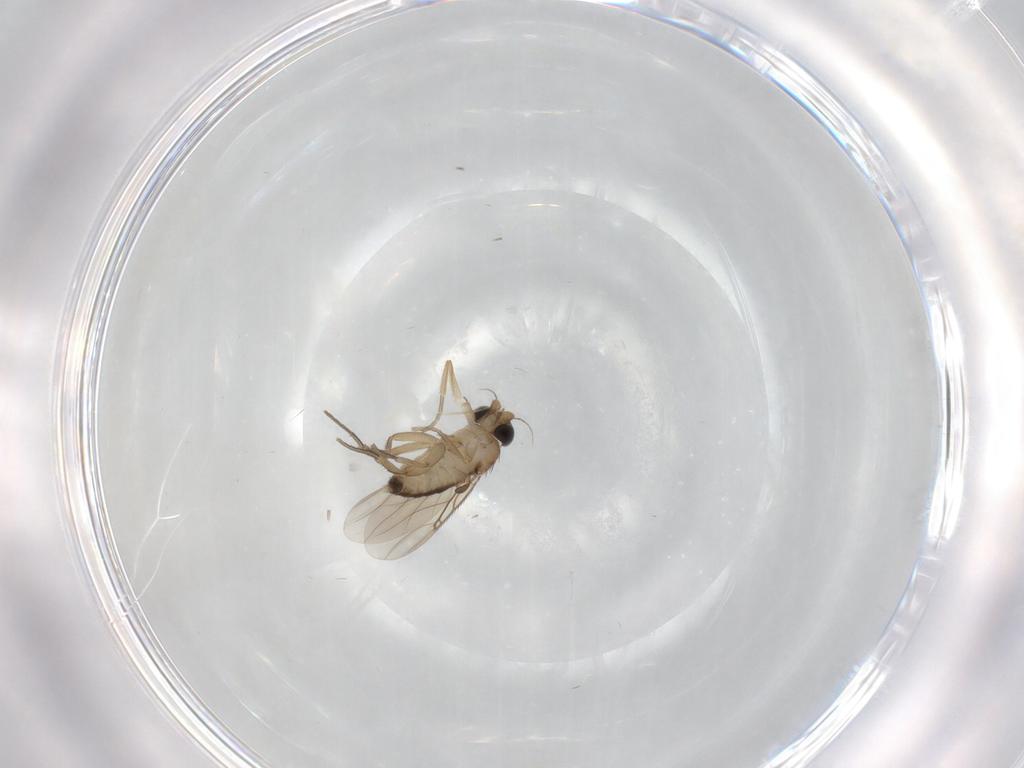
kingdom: Animalia
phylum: Arthropoda
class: Insecta
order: Diptera
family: Phoridae
